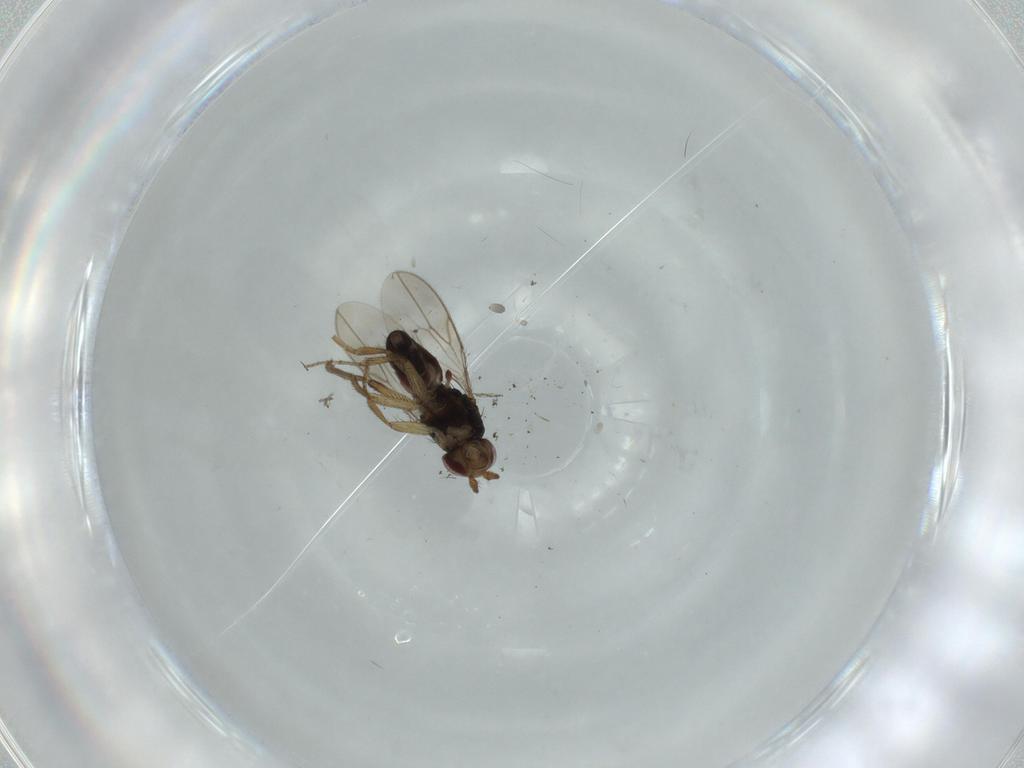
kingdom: Animalia
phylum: Arthropoda
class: Insecta
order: Diptera
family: Sphaeroceridae
